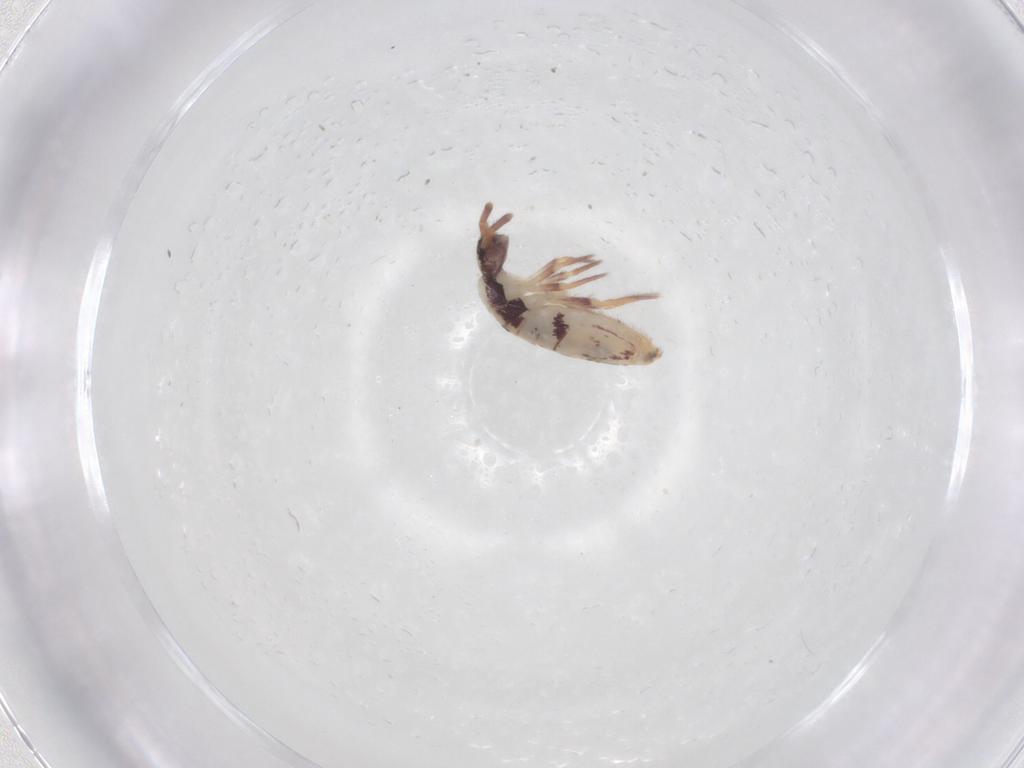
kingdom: Animalia
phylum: Arthropoda
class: Collembola
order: Entomobryomorpha
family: Entomobryidae
